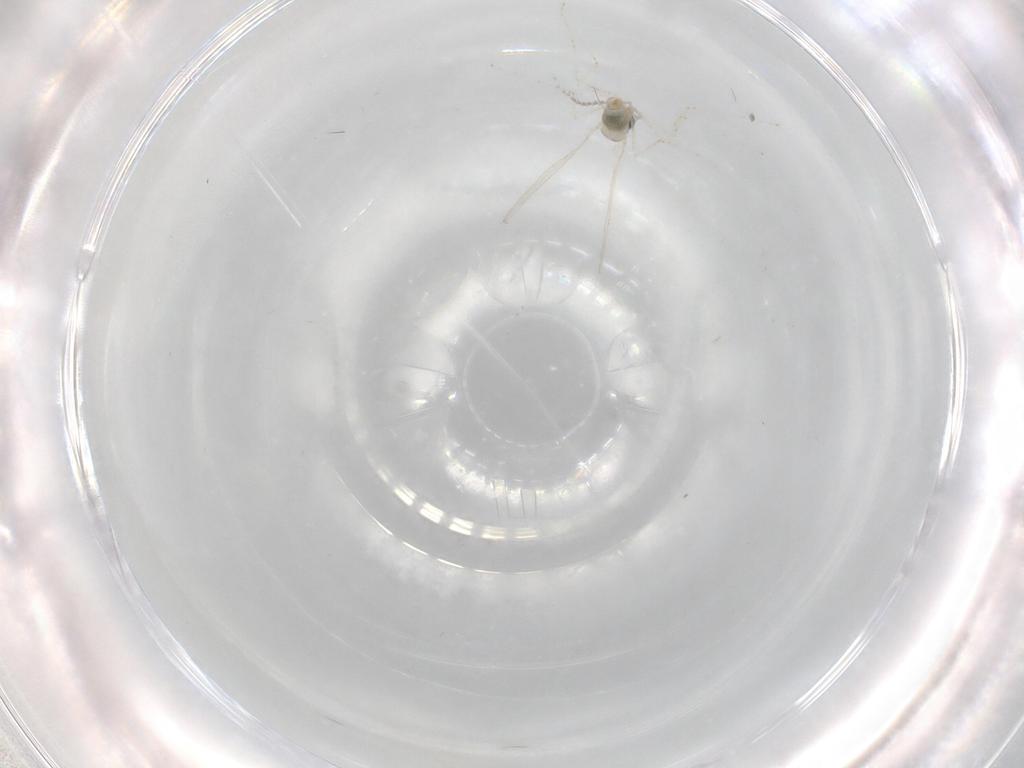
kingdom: Animalia
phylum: Arthropoda
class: Insecta
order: Diptera
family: Cecidomyiidae
